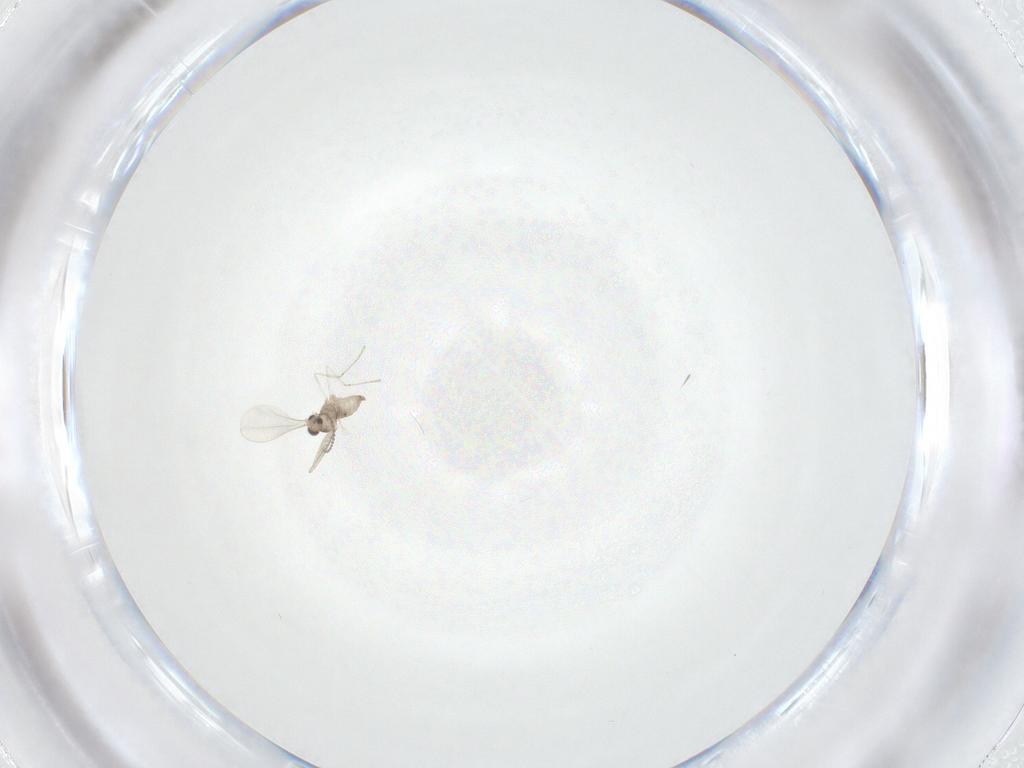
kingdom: Animalia
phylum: Arthropoda
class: Insecta
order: Diptera
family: Cecidomyiidae
